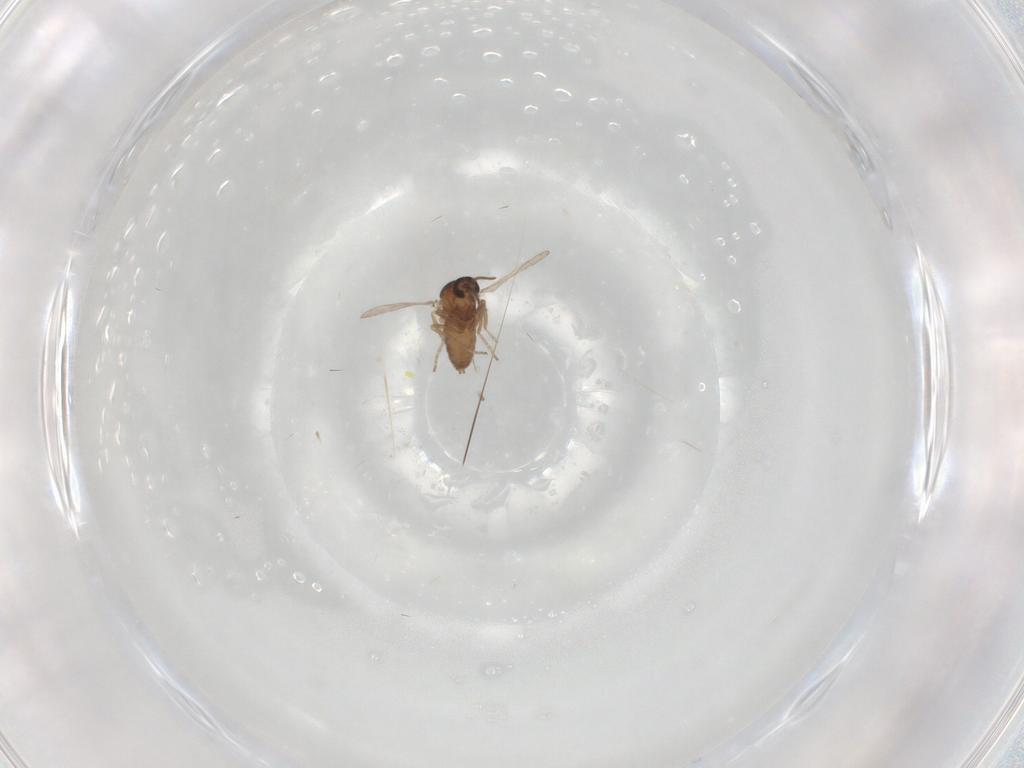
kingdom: Animalia
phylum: Arthropoda
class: Insecta
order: Diptera
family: Ceratopogonidae
